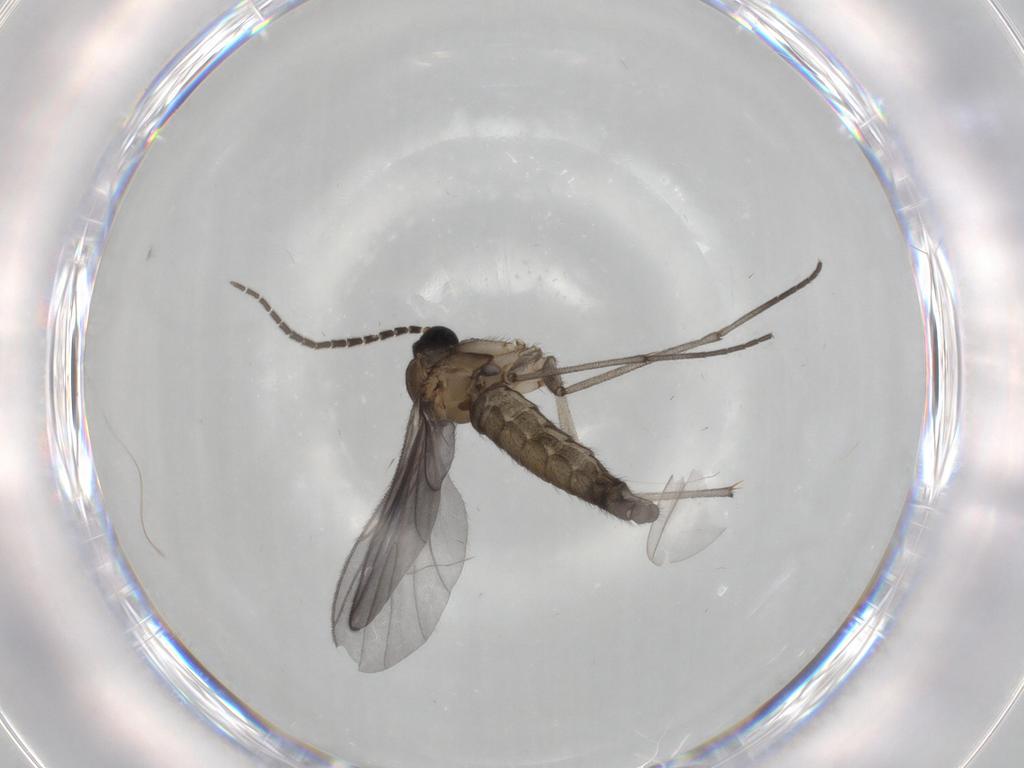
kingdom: Animalia
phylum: Arthropoda
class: Insecta
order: Diptera
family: Sciaridae
